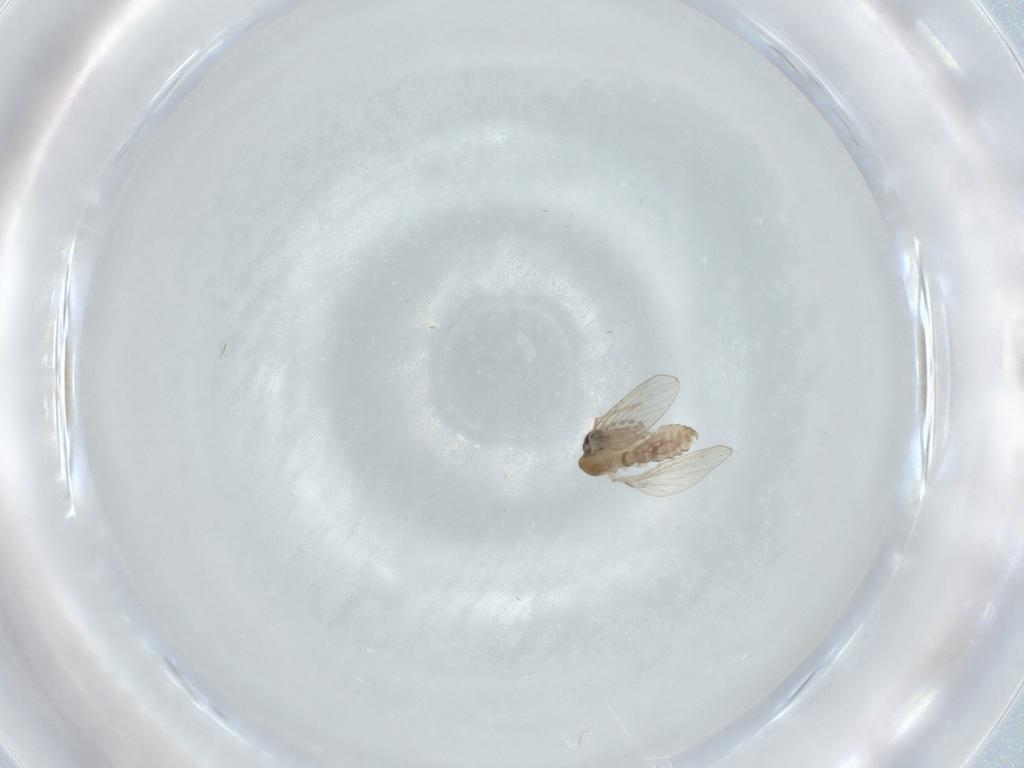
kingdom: Animalia
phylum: Arthropoda
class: Insecta
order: Diptera
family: Psychodidae
